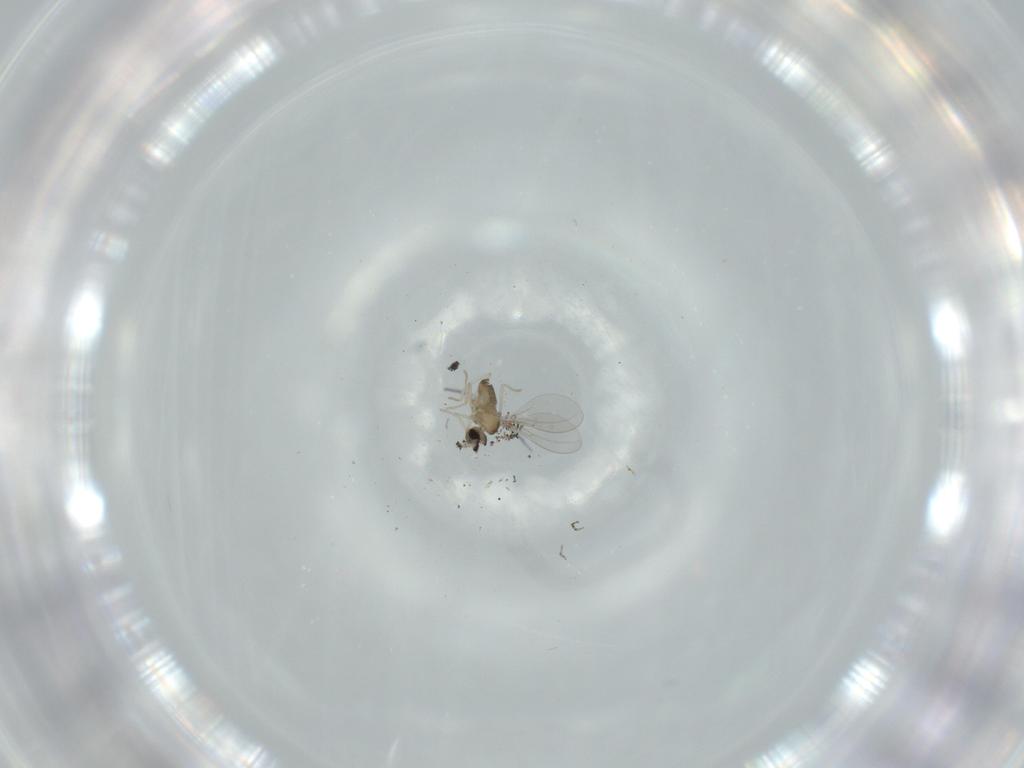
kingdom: Animalia
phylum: Arthropoda
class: Insecta
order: Diptera
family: Cecidomyiidae
